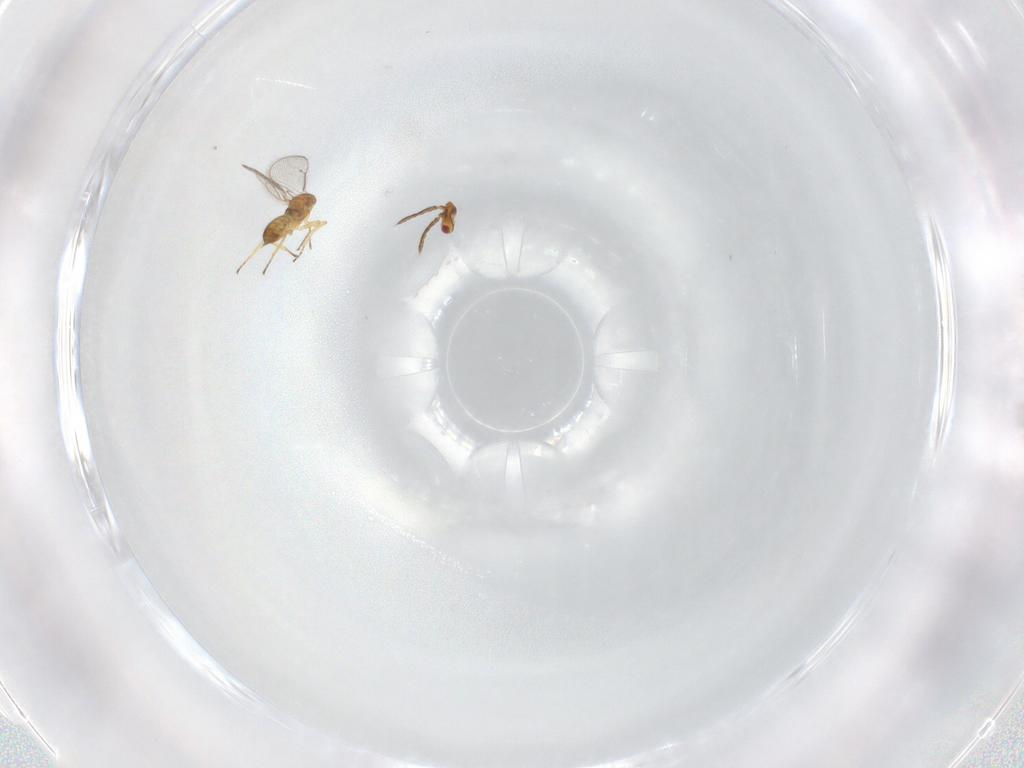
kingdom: Animalia
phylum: Arthropoda
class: Insecta
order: Hymenoptera
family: Eulophidae
